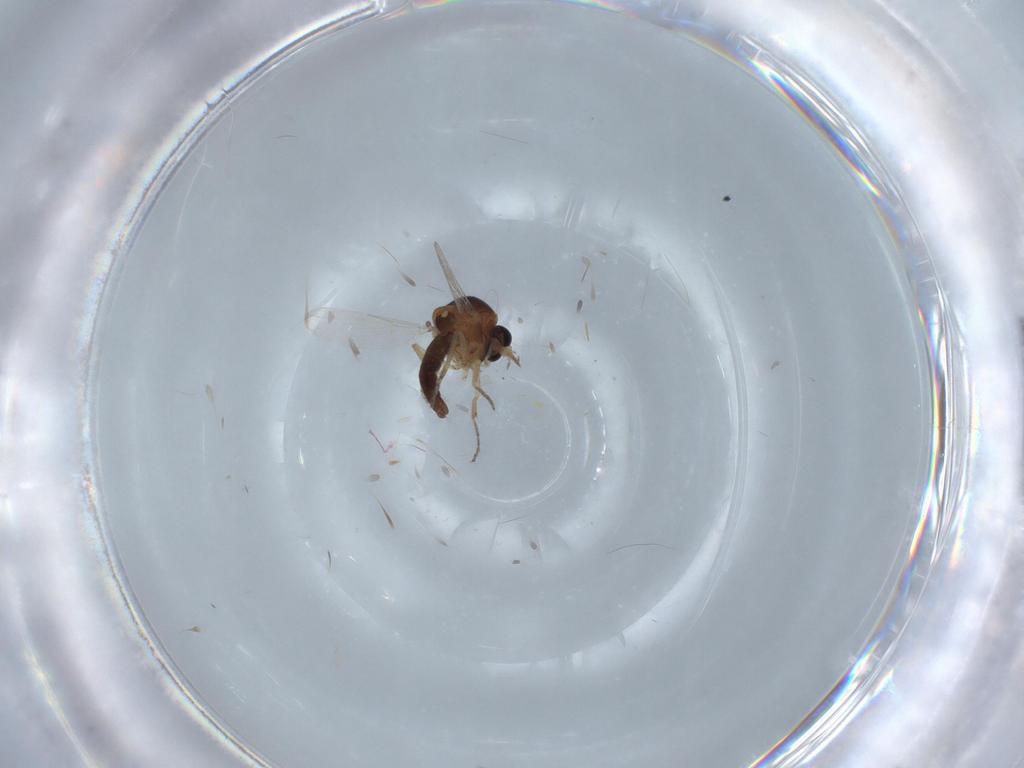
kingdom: Animalia
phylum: Arthropoda
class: Insecta
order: Diptera
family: Ceratopogonidae
